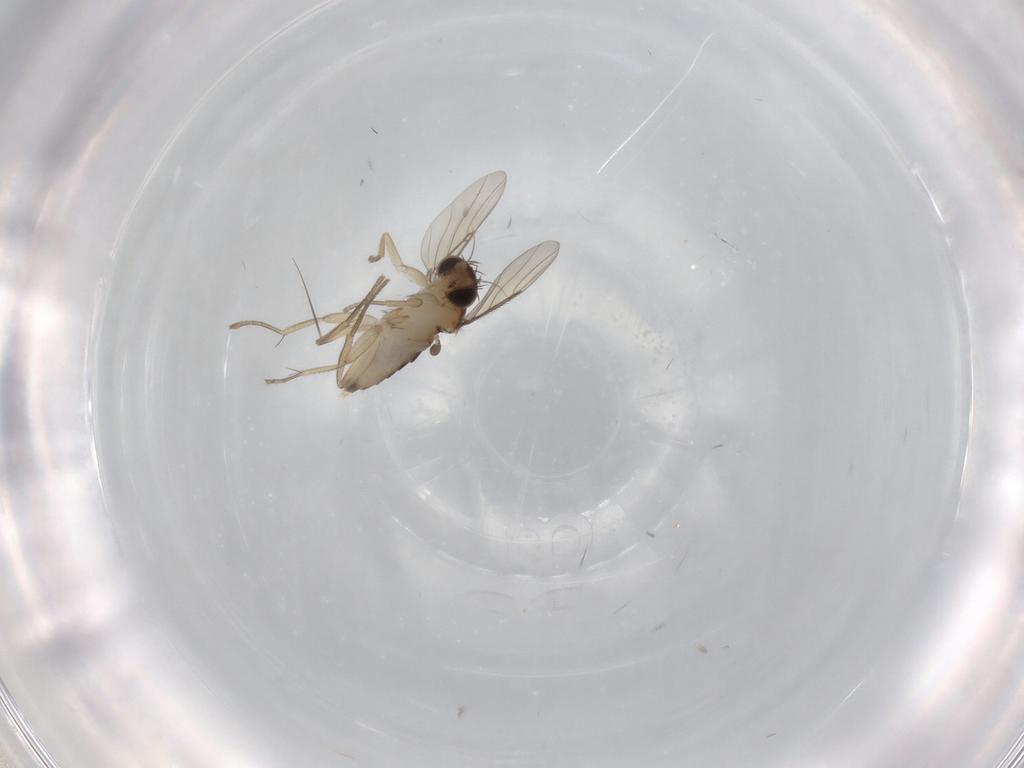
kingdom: Animalia
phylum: Arthropoda
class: Insecta
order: Diptera
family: Phoridae
